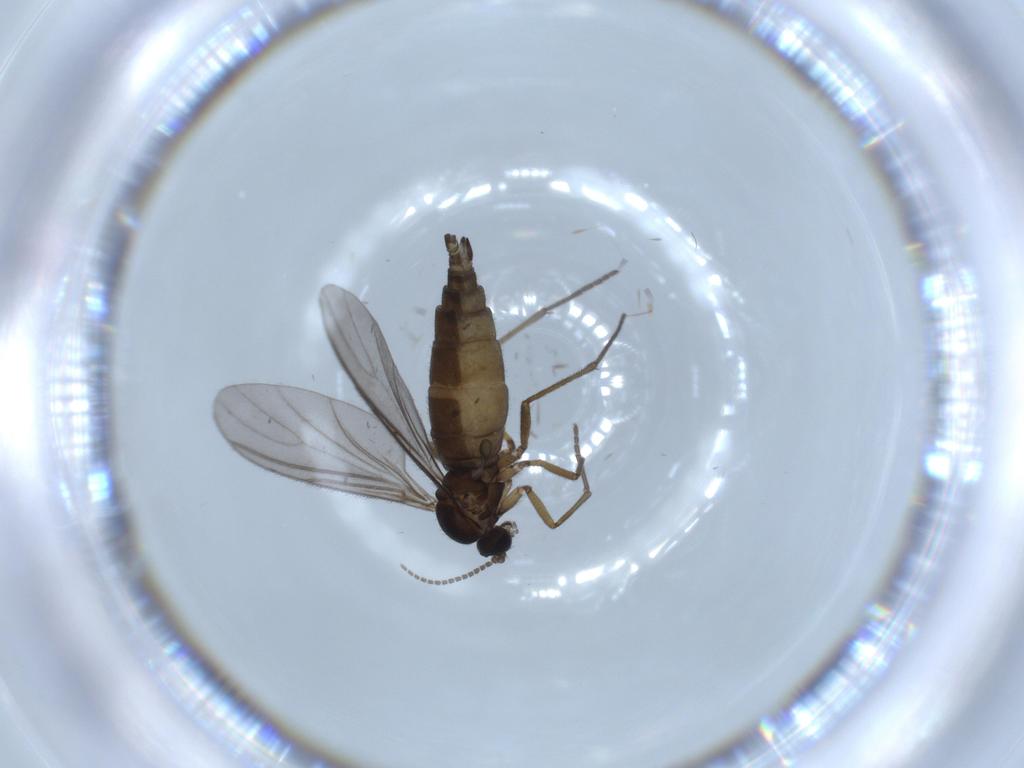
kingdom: Animalia
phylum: Arthropoda
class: Insecta
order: Diptera
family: Sciaridae
